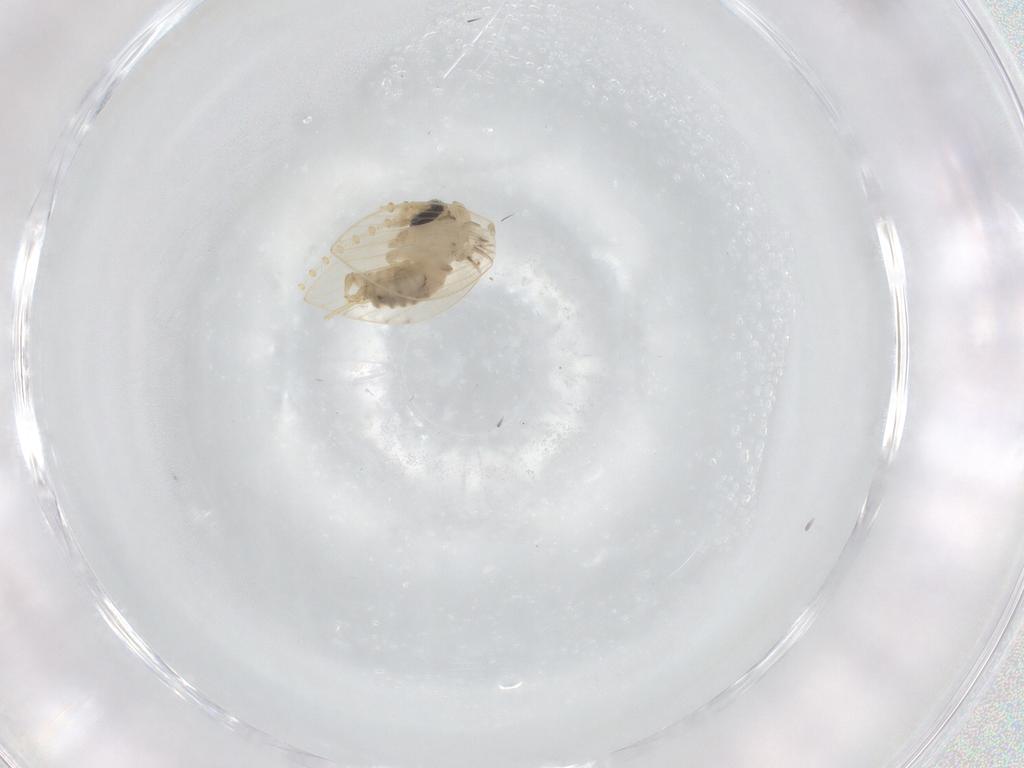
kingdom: Animalia
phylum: Arthropoda
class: Insecta
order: Diptera
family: Psychodidae
